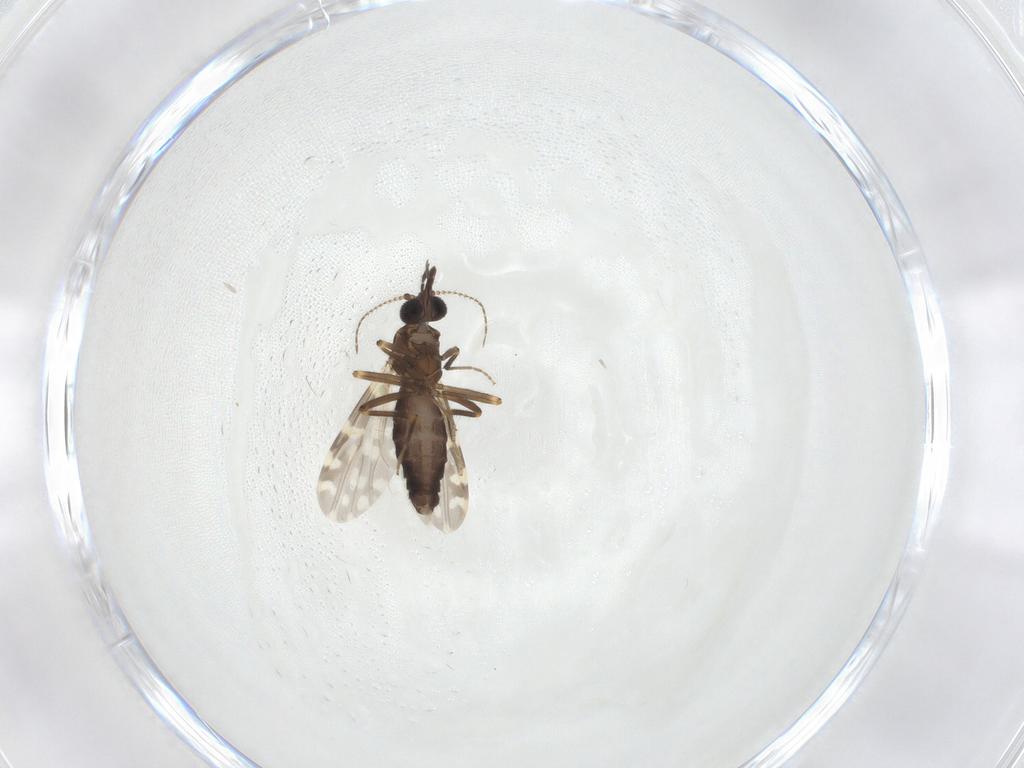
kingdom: Animalia
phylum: Arthropoda
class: Insecta
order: Diptera
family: Ceratopogonidae
